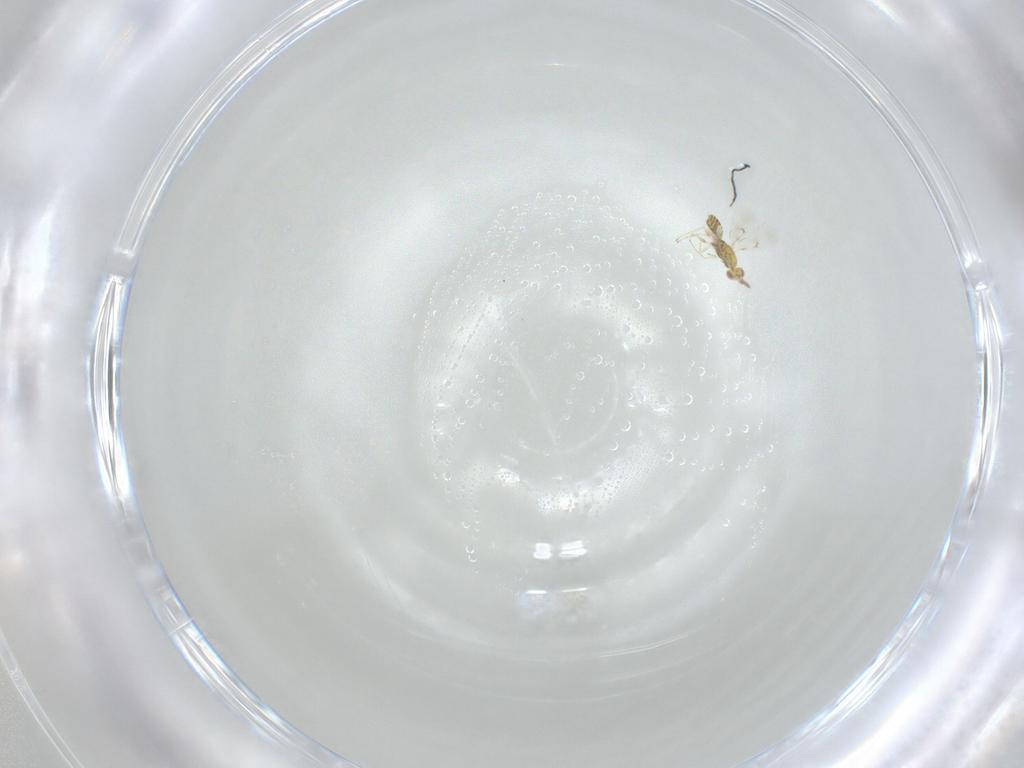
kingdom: Animalia
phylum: Arthropoda
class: Insecta
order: Hymenoptera
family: Eulophidae
